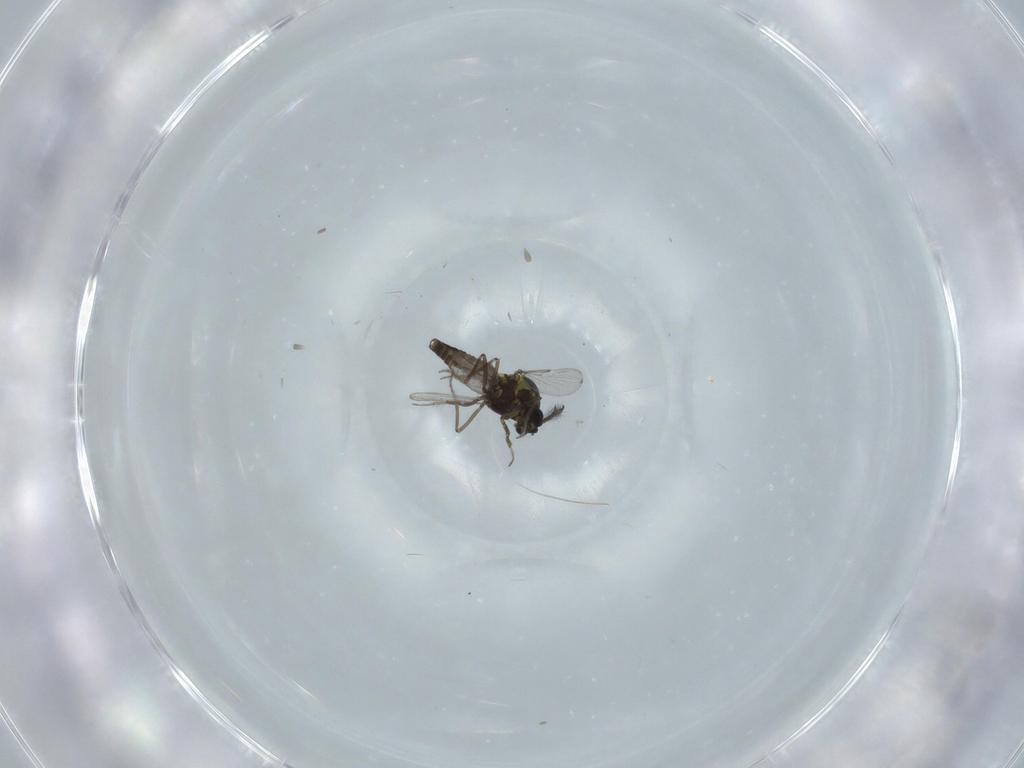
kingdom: Animalia
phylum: Arthropoda
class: Insecta
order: Diptera
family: Ceratopogonidae
